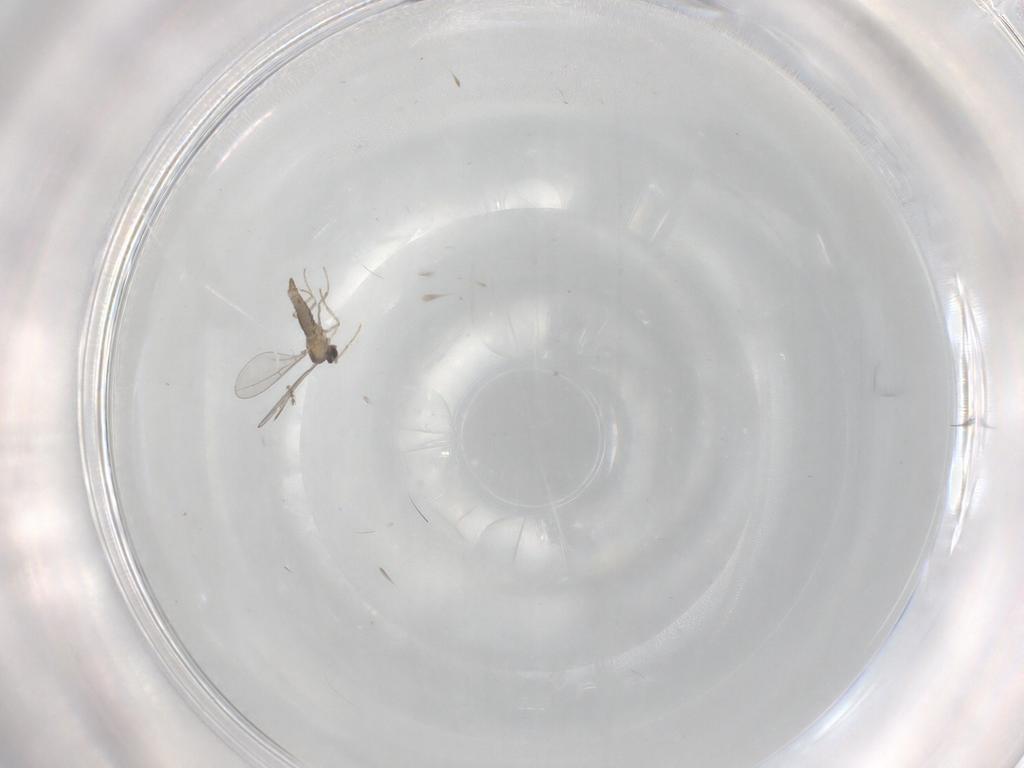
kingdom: Animalia
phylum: Arthropoda
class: Insecta
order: Diptera
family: Cecidomyiidae
